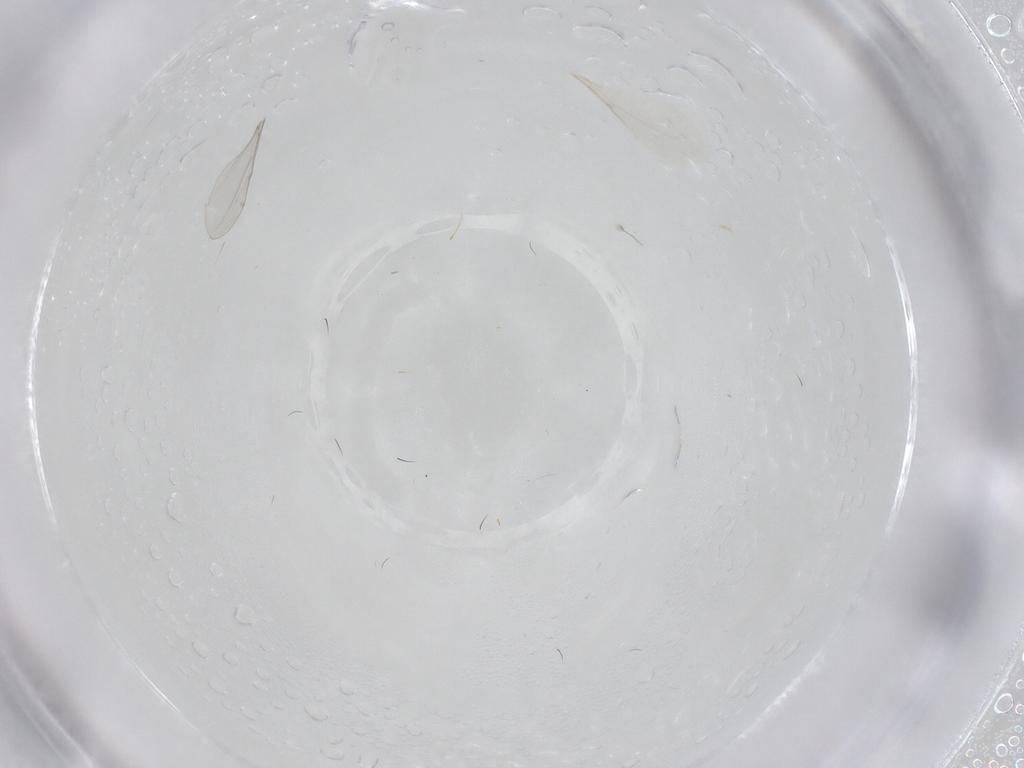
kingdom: Animalia
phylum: Arthropoda
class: Insecta
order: Diptera
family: Cecidomyiidae
